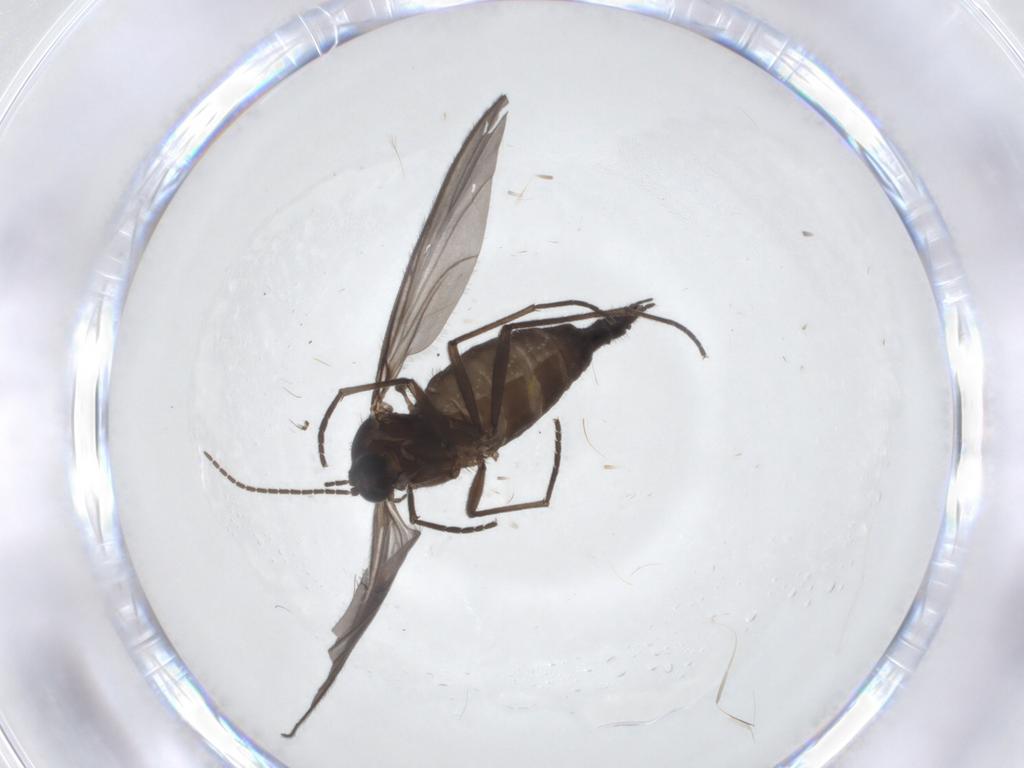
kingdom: Animalia
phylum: Arthropoda
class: Insecta
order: Diptera
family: Sciaridae
